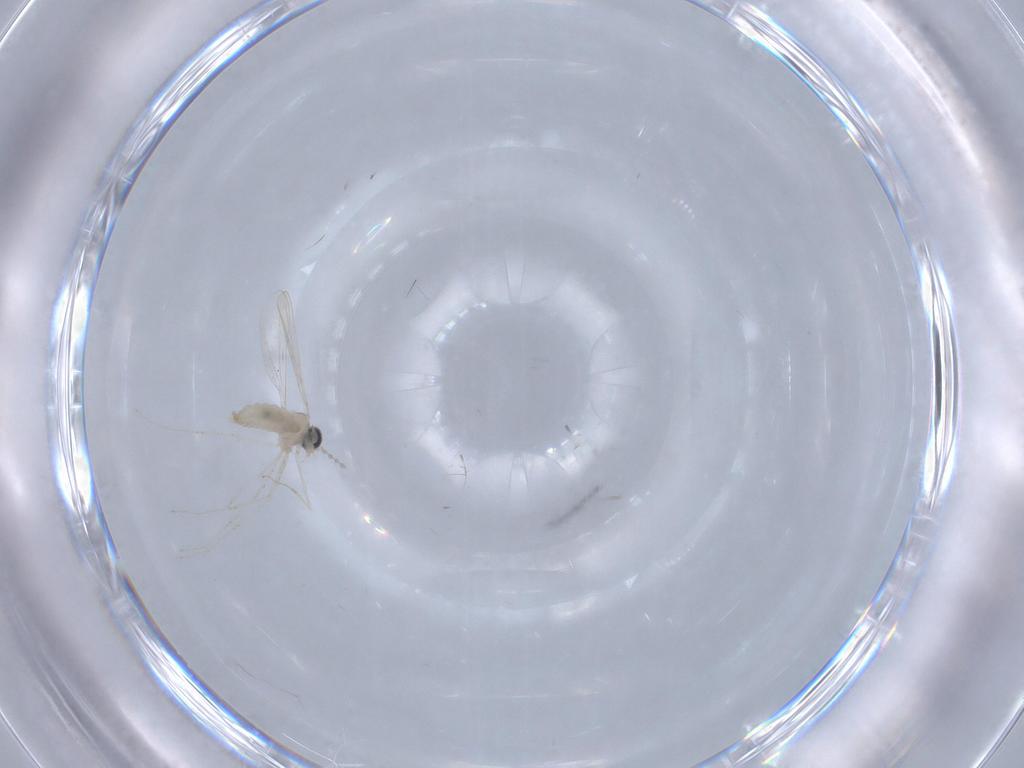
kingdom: Animalia
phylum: Arthropoda
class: Insecta
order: Diptera
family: Cecidomyiidae
